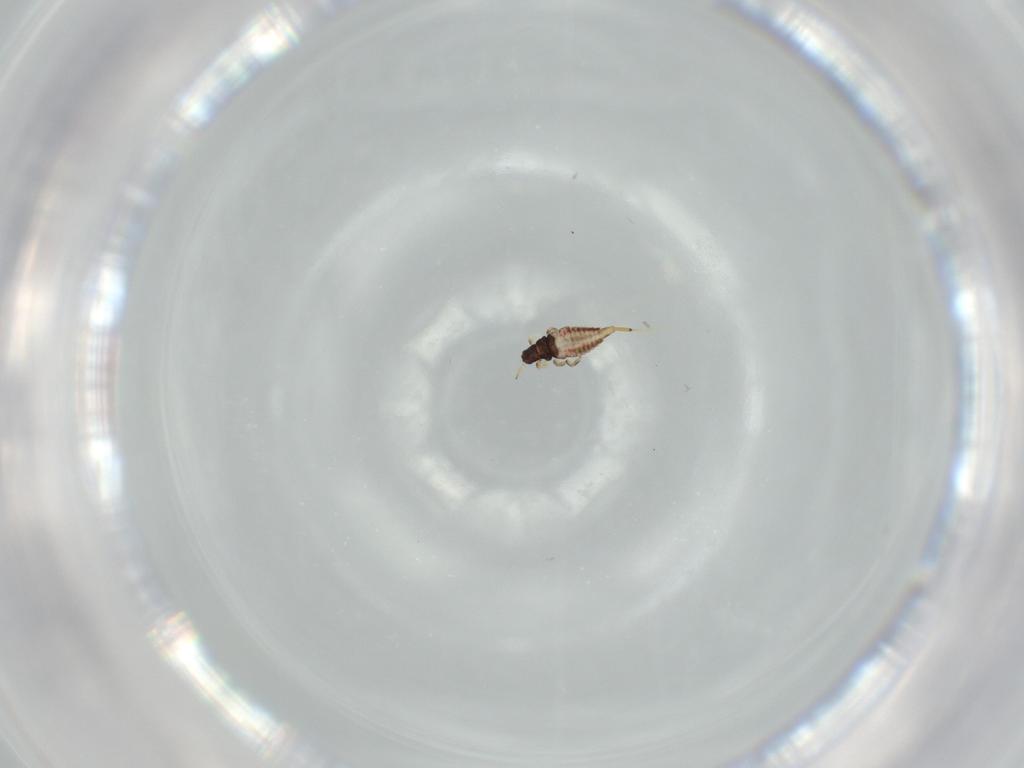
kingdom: Animalia
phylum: Arthropoda
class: Insecta
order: Thysanoptera
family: Phlaeothripidae
